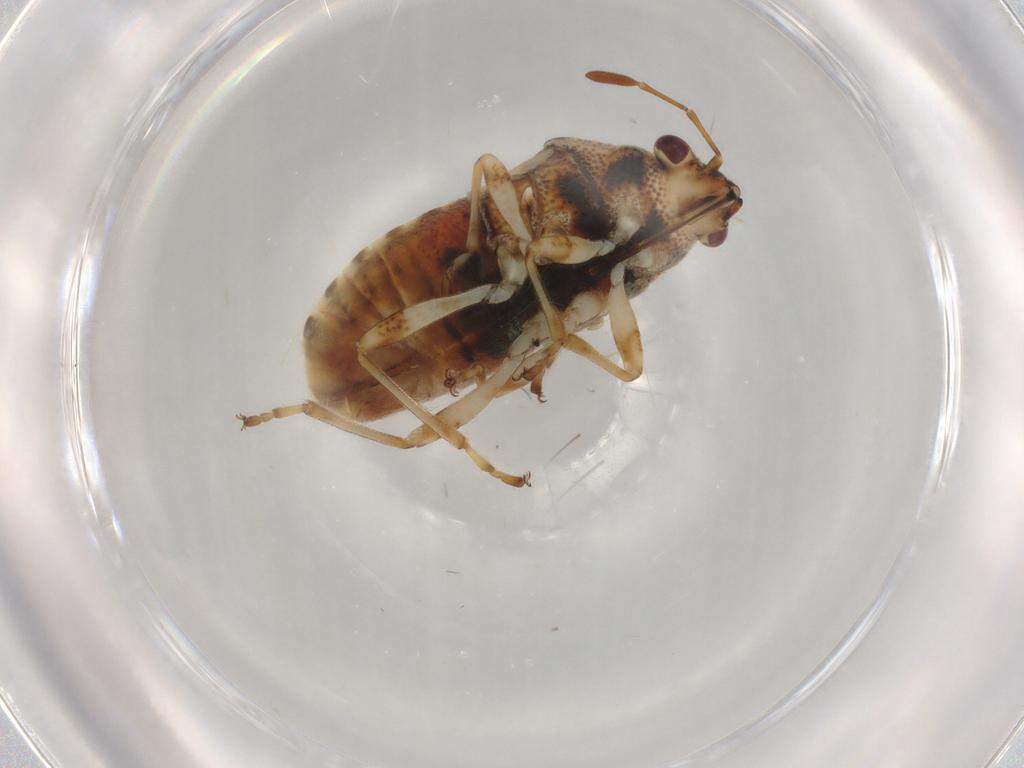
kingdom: Animalia
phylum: Arthropoda
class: Insecta
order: Hemiptera
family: Lygaeidae
